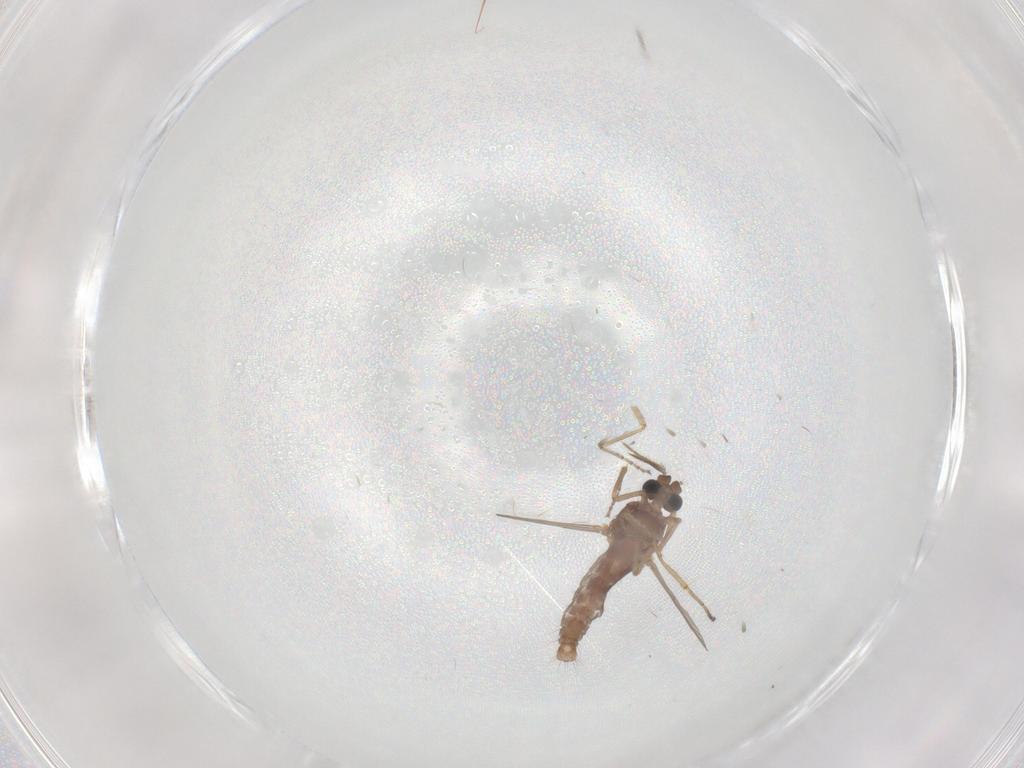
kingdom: Animalia
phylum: Arthropoda
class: Insecta
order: Diptera
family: Ceratopogonidae
